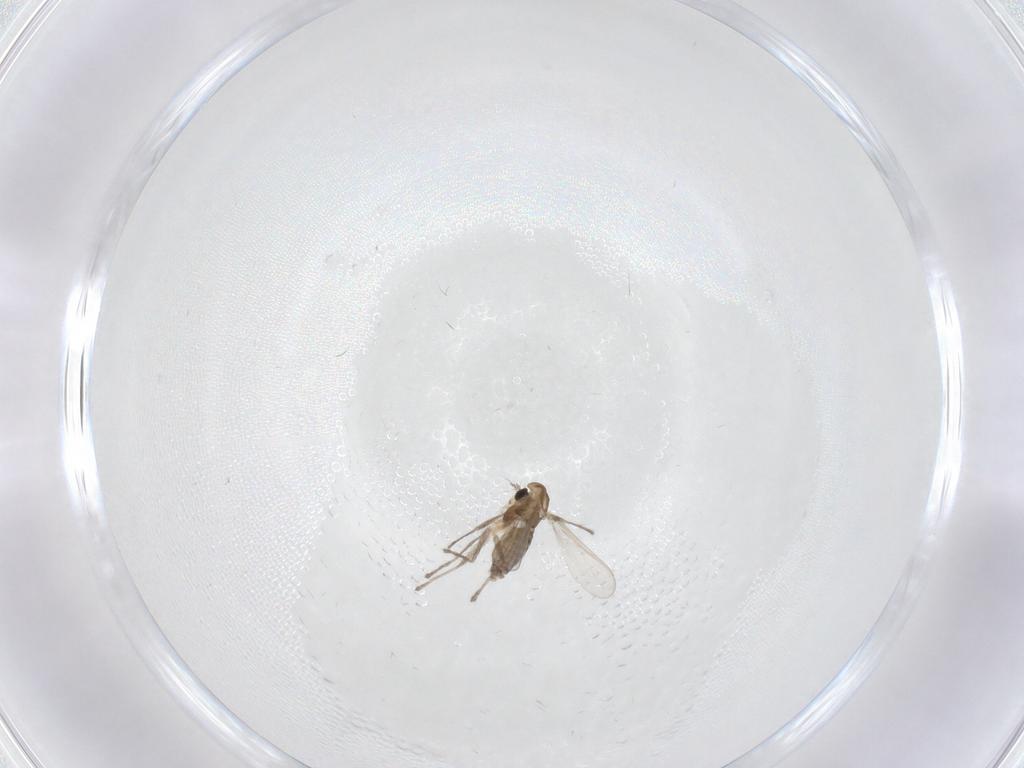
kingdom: Animalia
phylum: Arthropoda
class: Insecta
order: Diptera
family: Chironomidae
